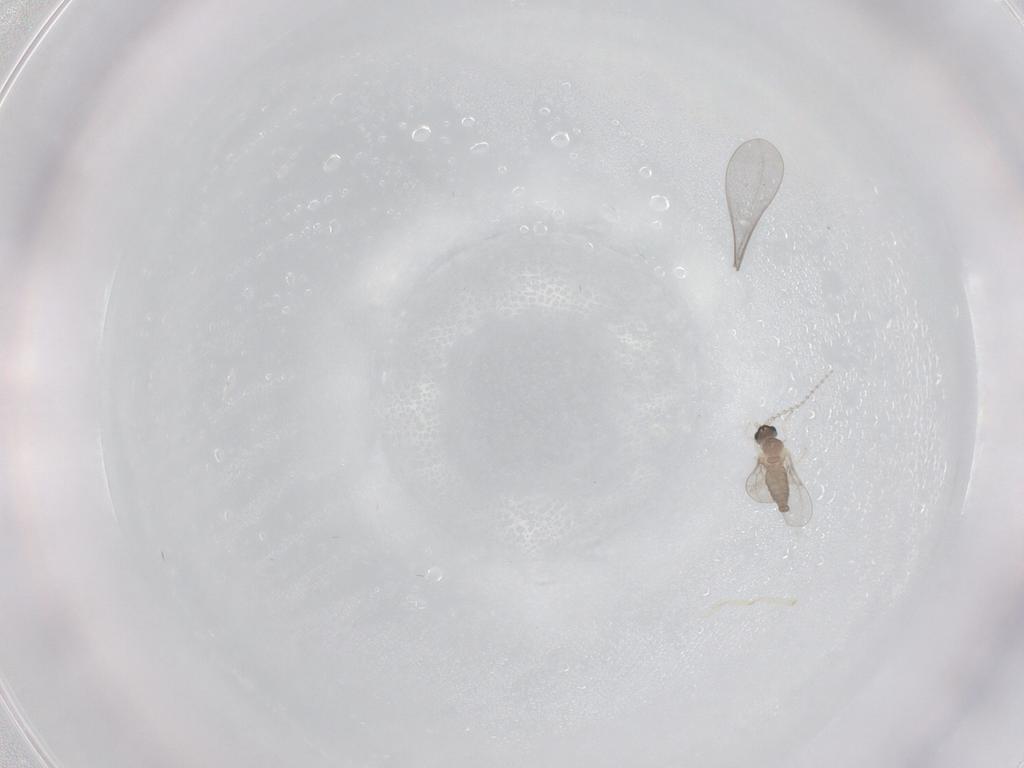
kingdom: Animalia
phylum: Arthropoda
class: Insecta
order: Diptera
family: Cecidomyiidae
